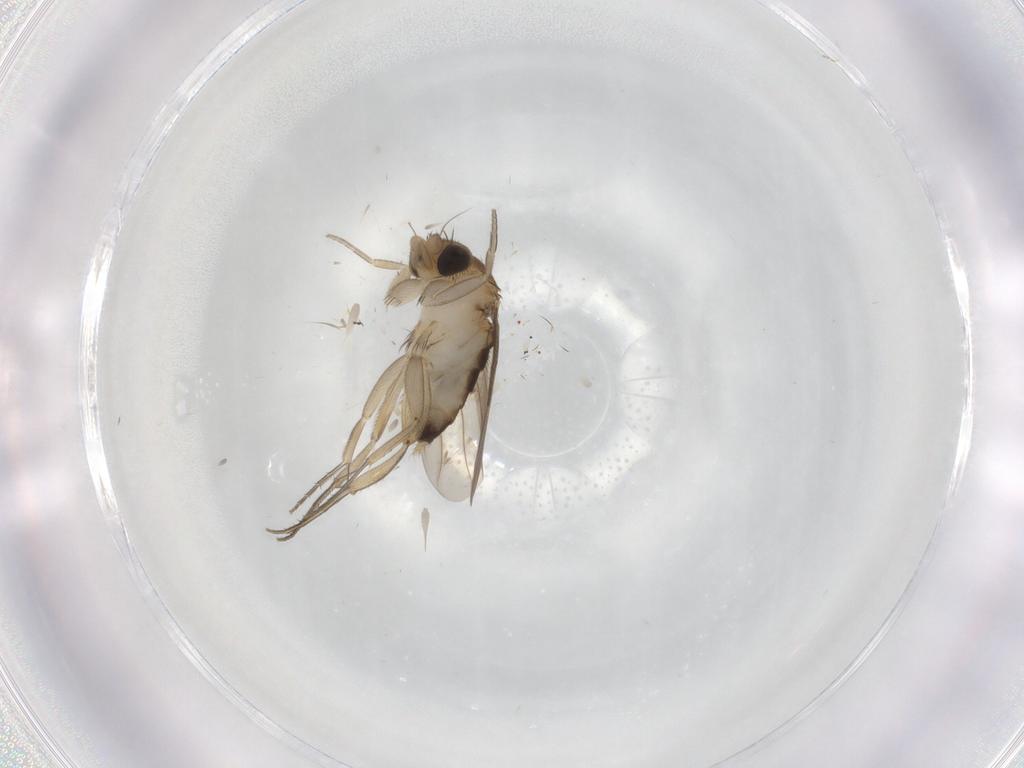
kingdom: Animalia
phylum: Arthropoda
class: Insecta
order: Diptera
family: Phoridae
